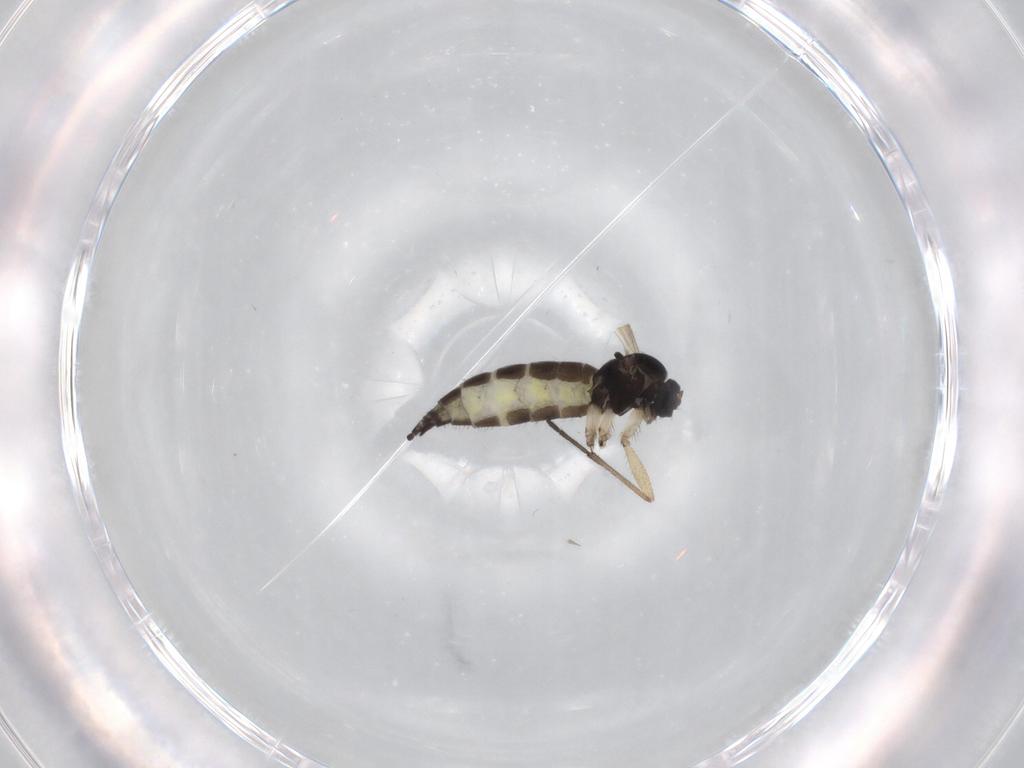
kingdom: Animalia
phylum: Arthropoda
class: Insecta
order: Diptera
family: Sciaridae
